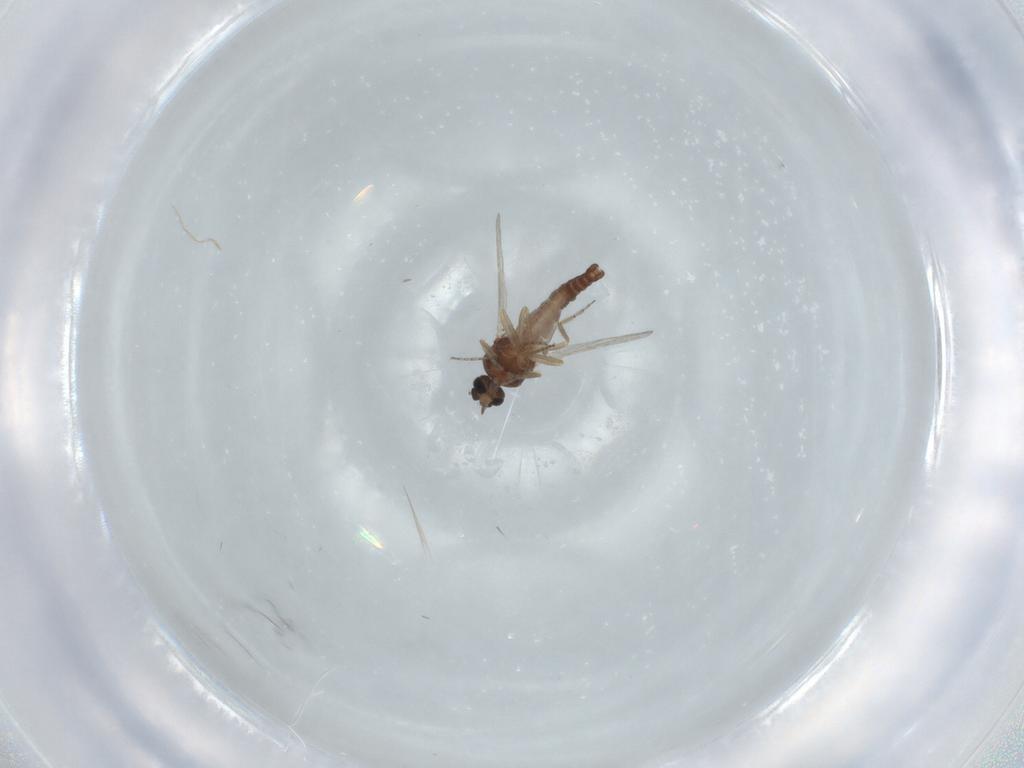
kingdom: Animalia
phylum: Arthropoda
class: Insecta
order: Diptera
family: Ceratopogonidae
